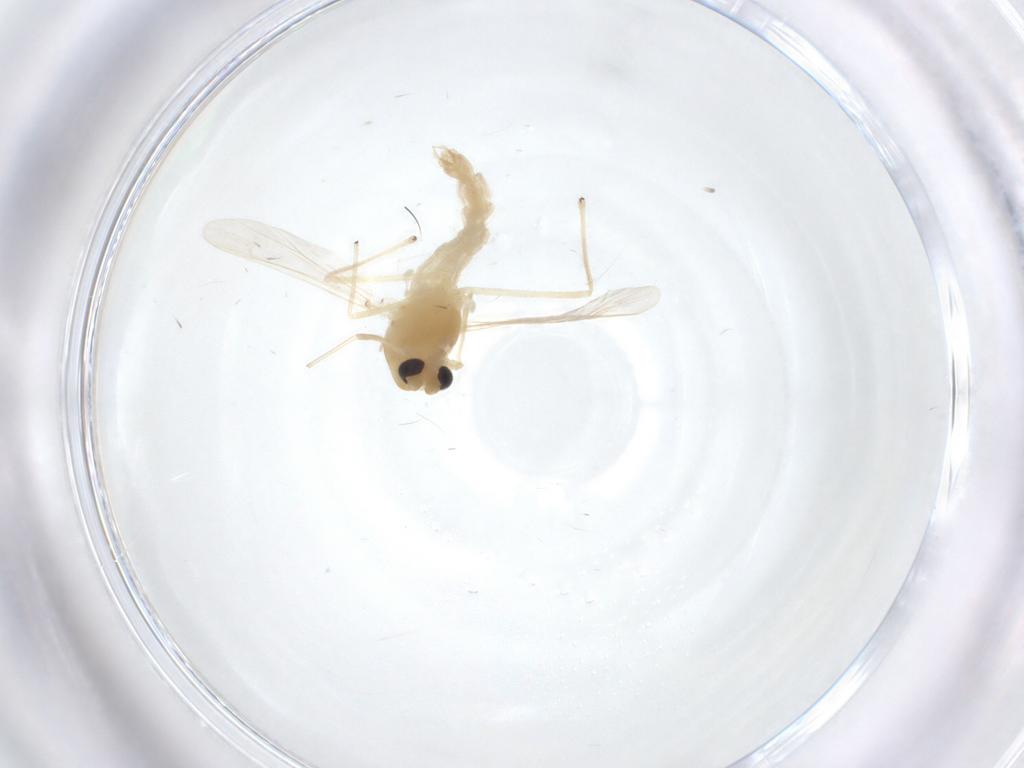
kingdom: Animalia
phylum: Arthropoda
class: Insecta
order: Diptera
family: Chironomidae
